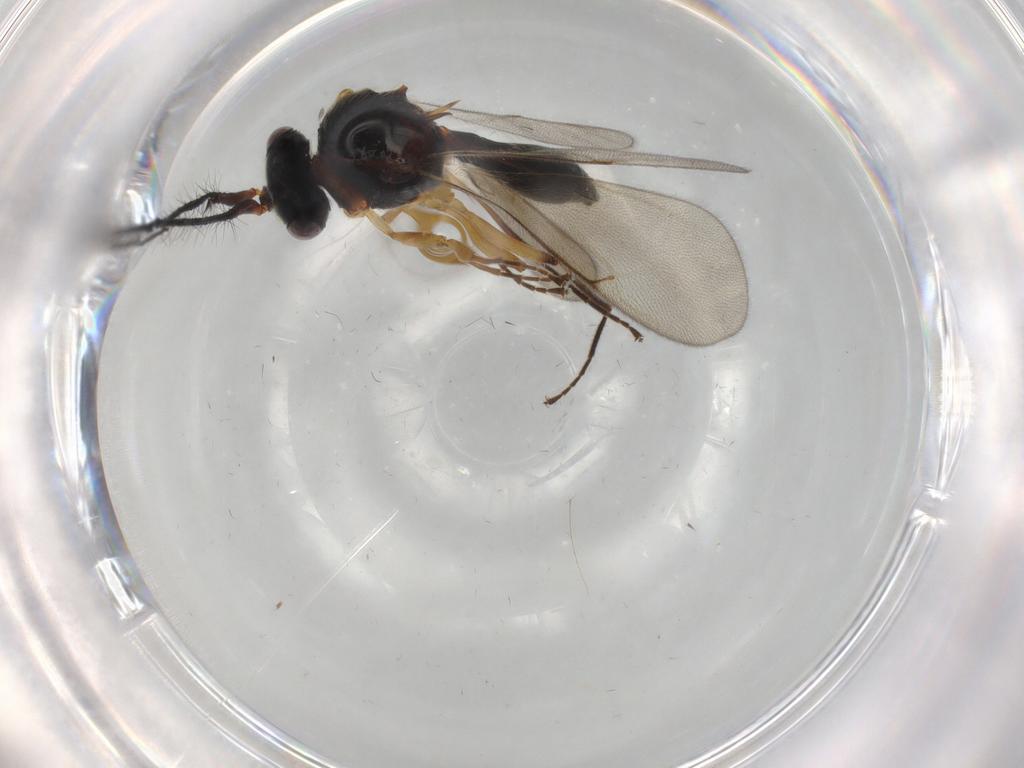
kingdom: Animalia
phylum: Arthropoda
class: Insecta
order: Hymenoptera
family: Scelionidae
